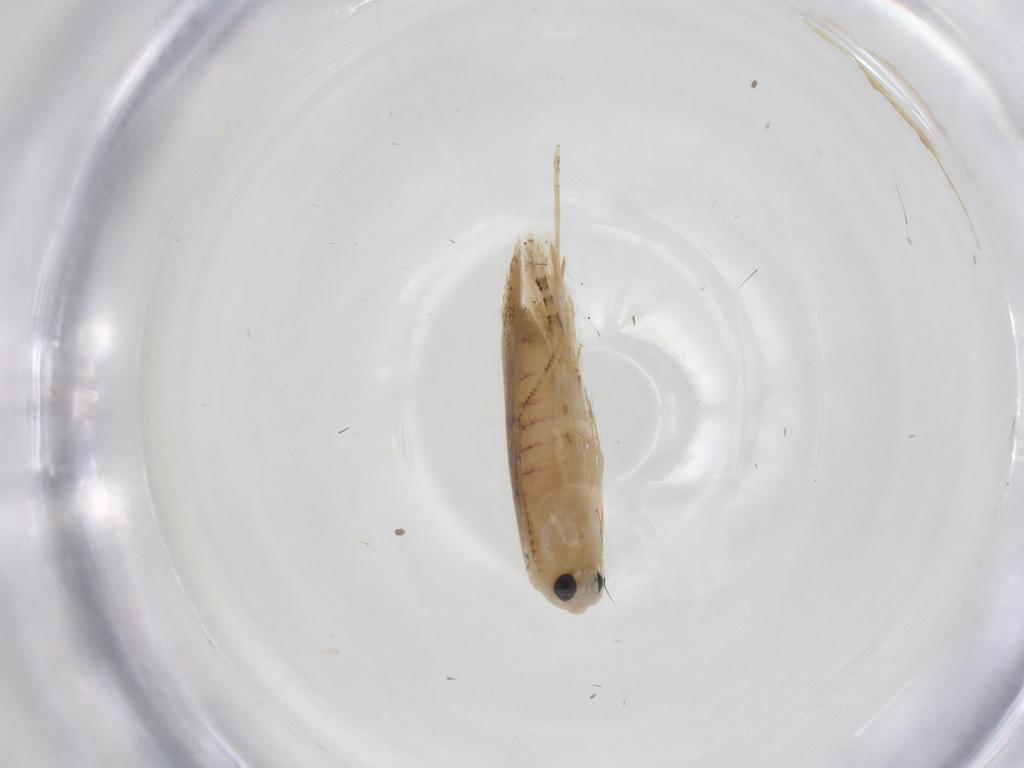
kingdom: Animalia
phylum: Arthropoda
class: Insecta
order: Lepidoptera
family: Bucculatricidae
